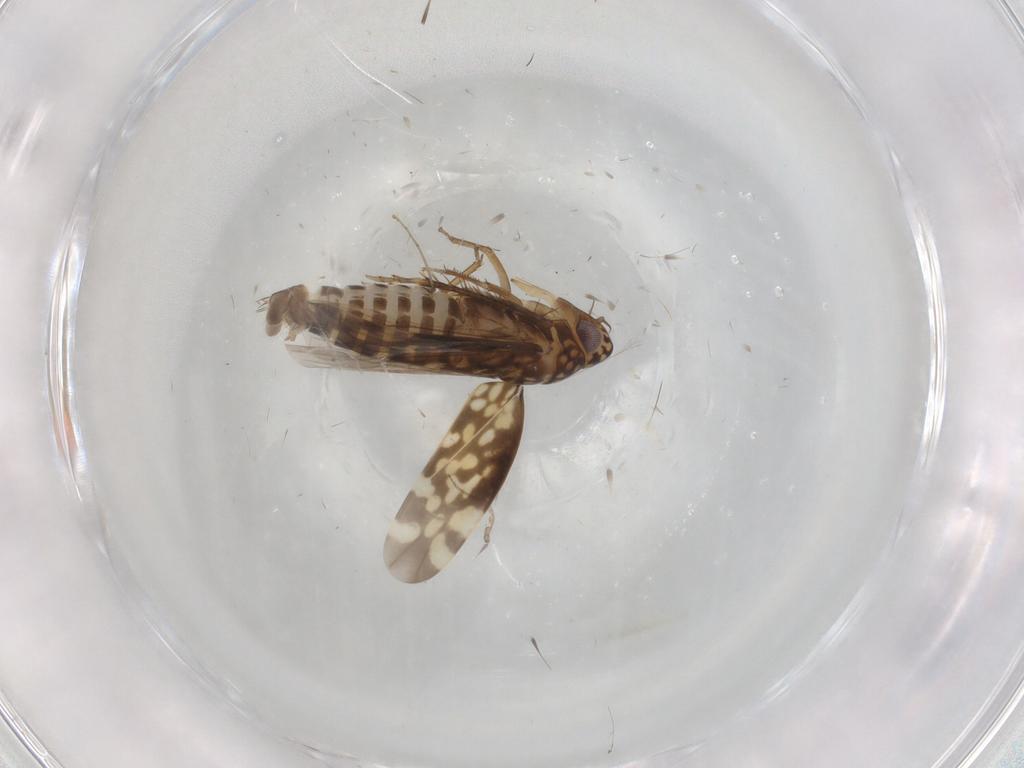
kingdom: Animalia
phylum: Arthropoda
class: Insecta
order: Hemiptera
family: Cicadellidae
